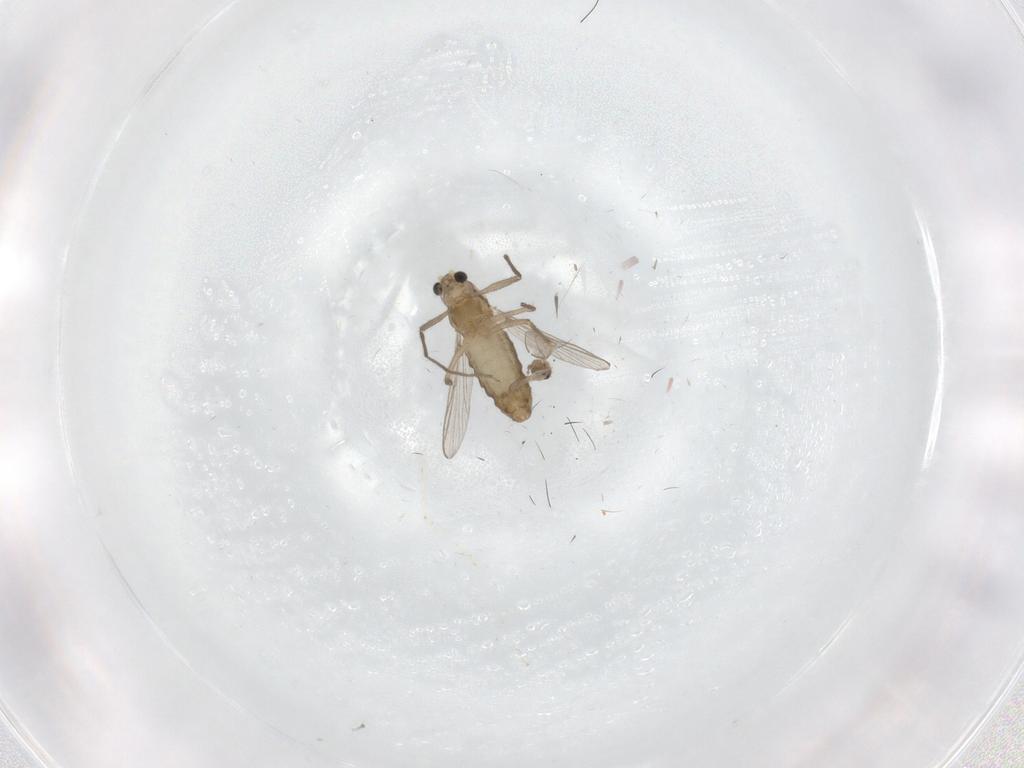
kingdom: Animalia
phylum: Arthropoda
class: Insecta
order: Diptera
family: Chironomidae
